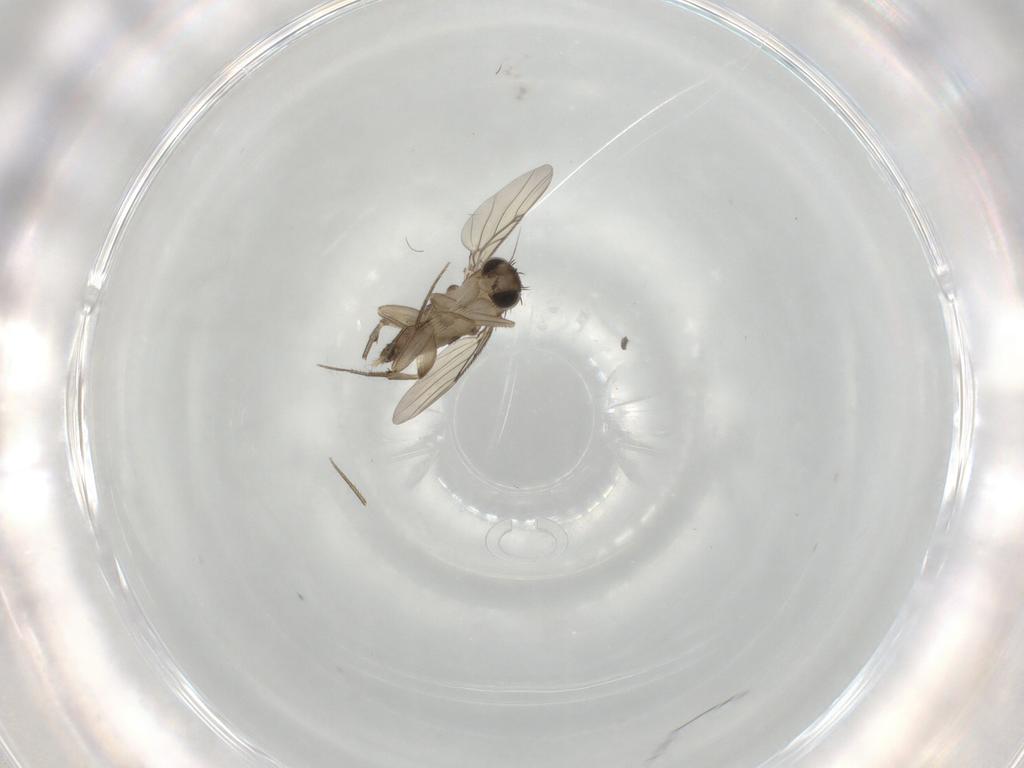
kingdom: Animalia
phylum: Arthropoda
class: Insecta
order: Diptera
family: Phoridae
